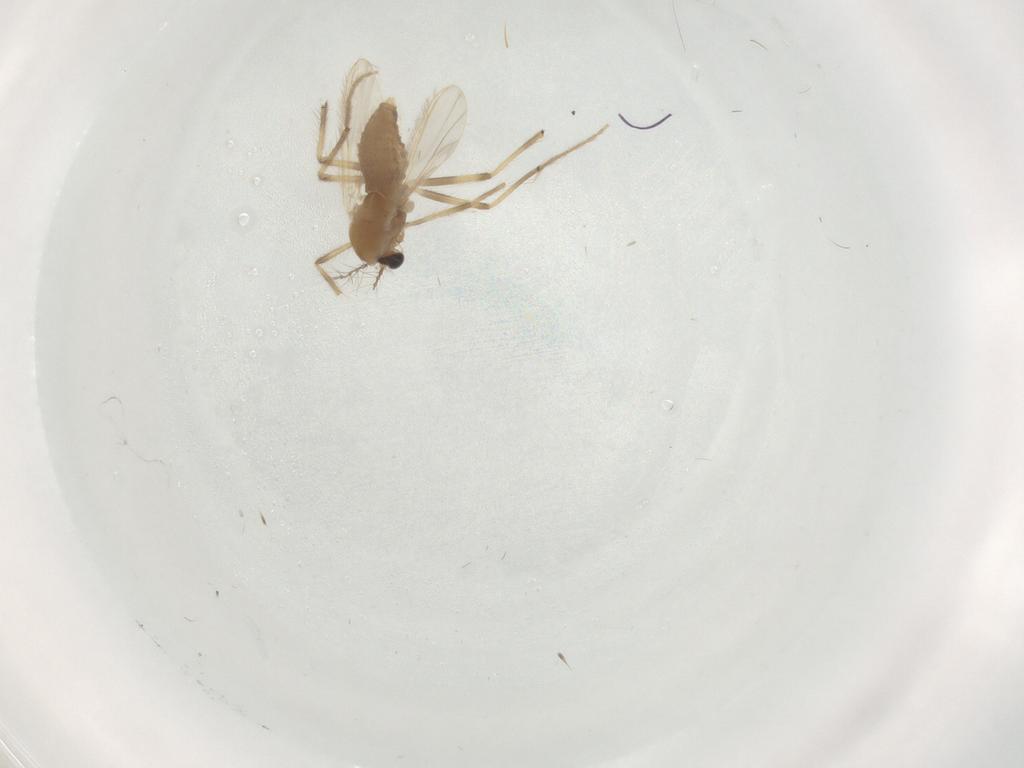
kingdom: Animalia
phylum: Arthropoda
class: Insecta
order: Diptera
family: Chironomidae
